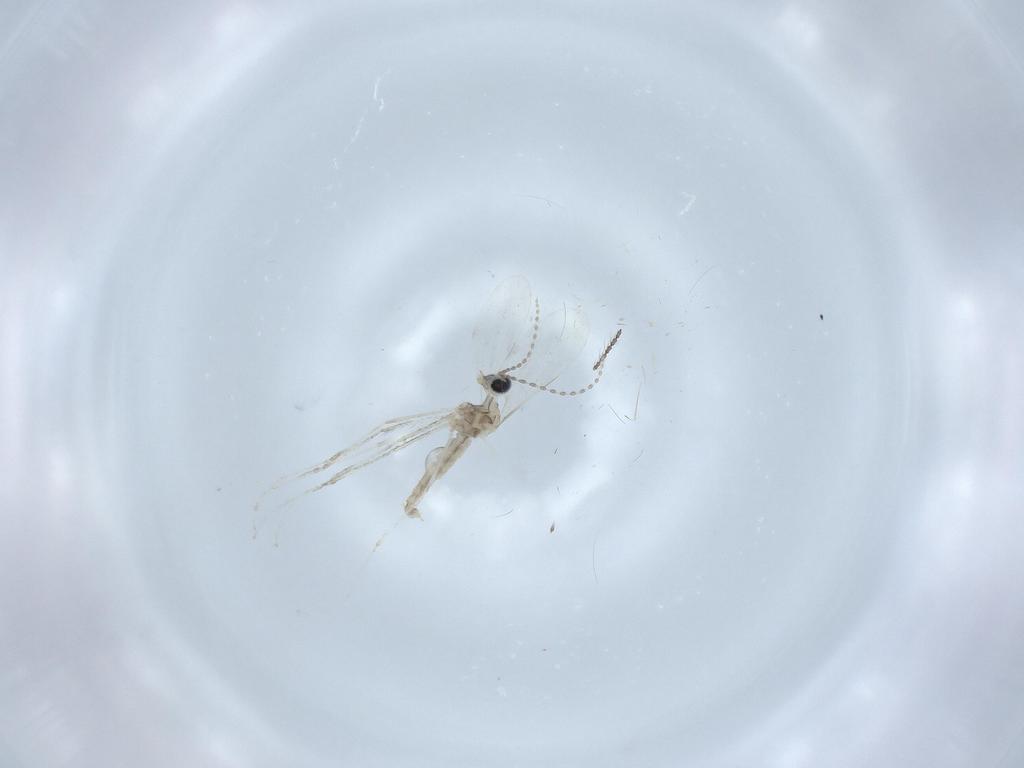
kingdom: Animalia
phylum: Arthropoda
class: Insecta
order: Diptera
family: Cecidomyiidae
